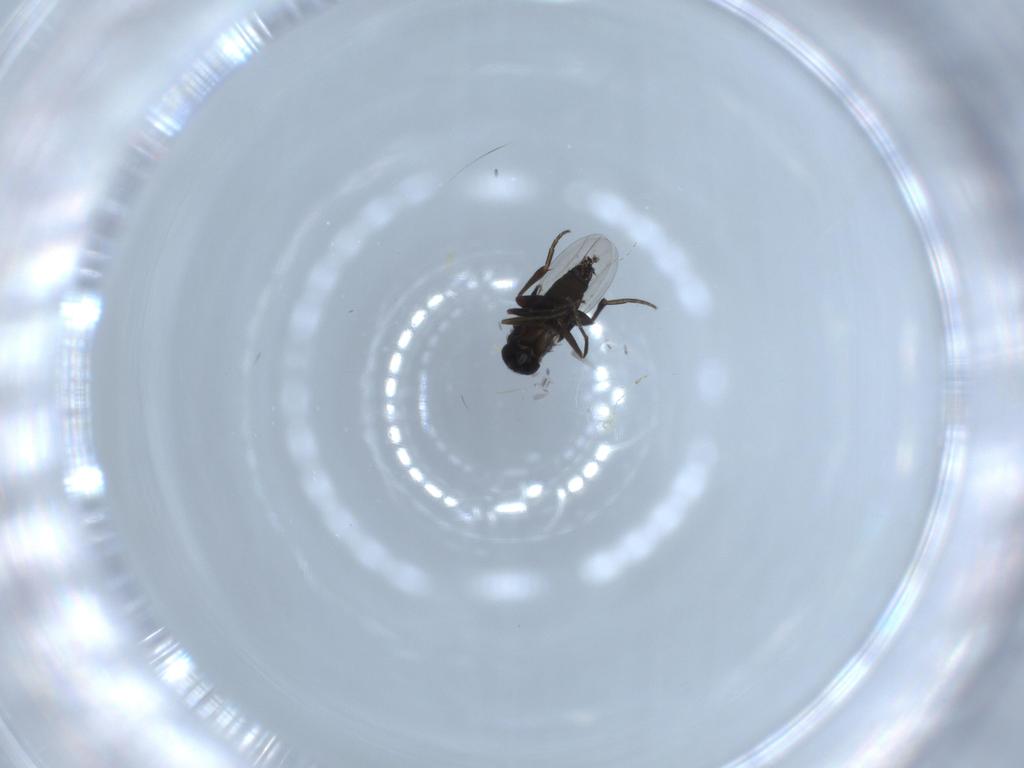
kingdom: Animalia
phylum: Arthropoda
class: Insecta
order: Diptera
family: Phoridae
